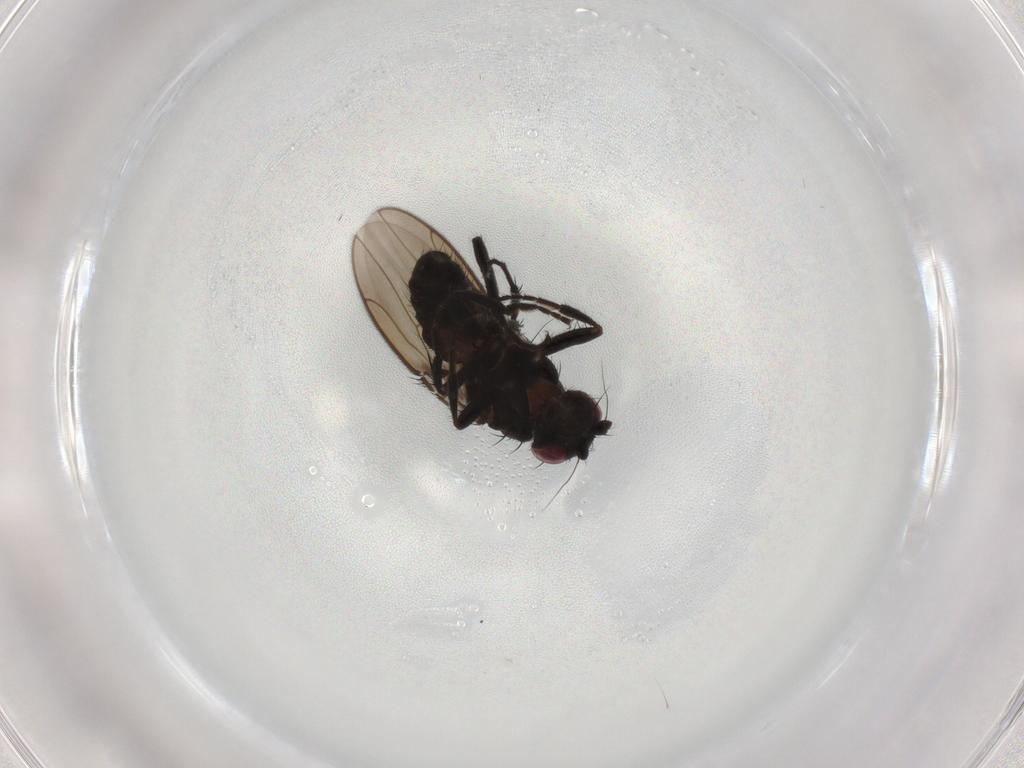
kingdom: Animalia
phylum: Arthropoda
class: Insecta
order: Diptera
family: Sphaeroceridae
